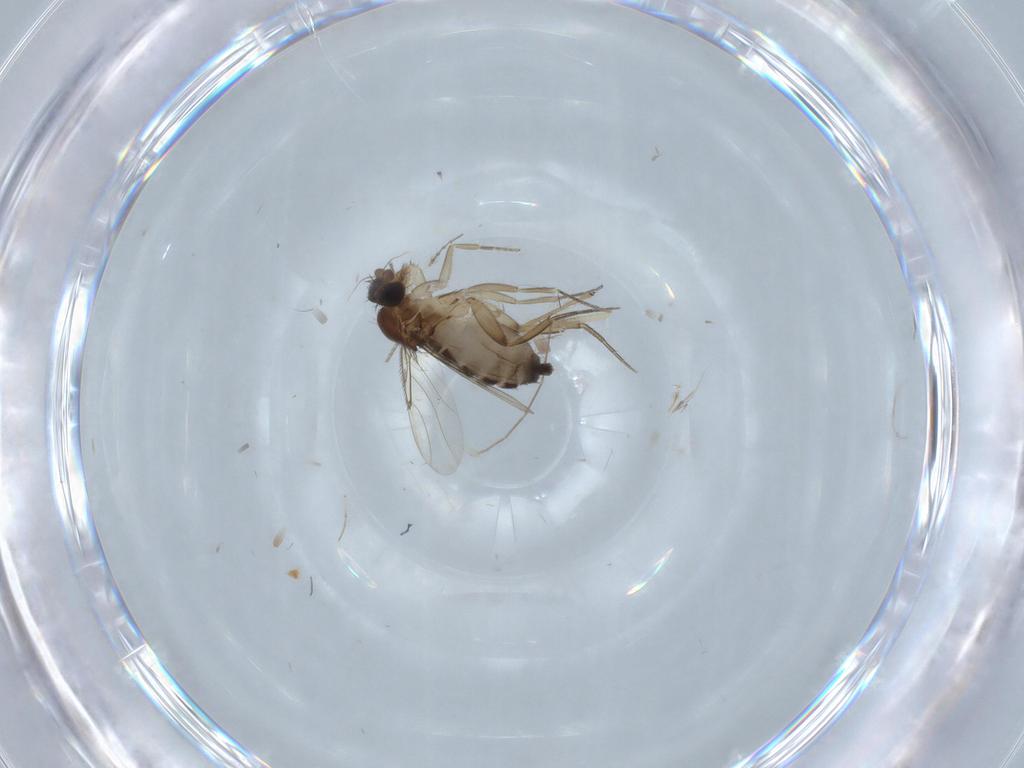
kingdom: Animalia
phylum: Arthropoda
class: Insecta
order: Diptera
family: Phoridae
